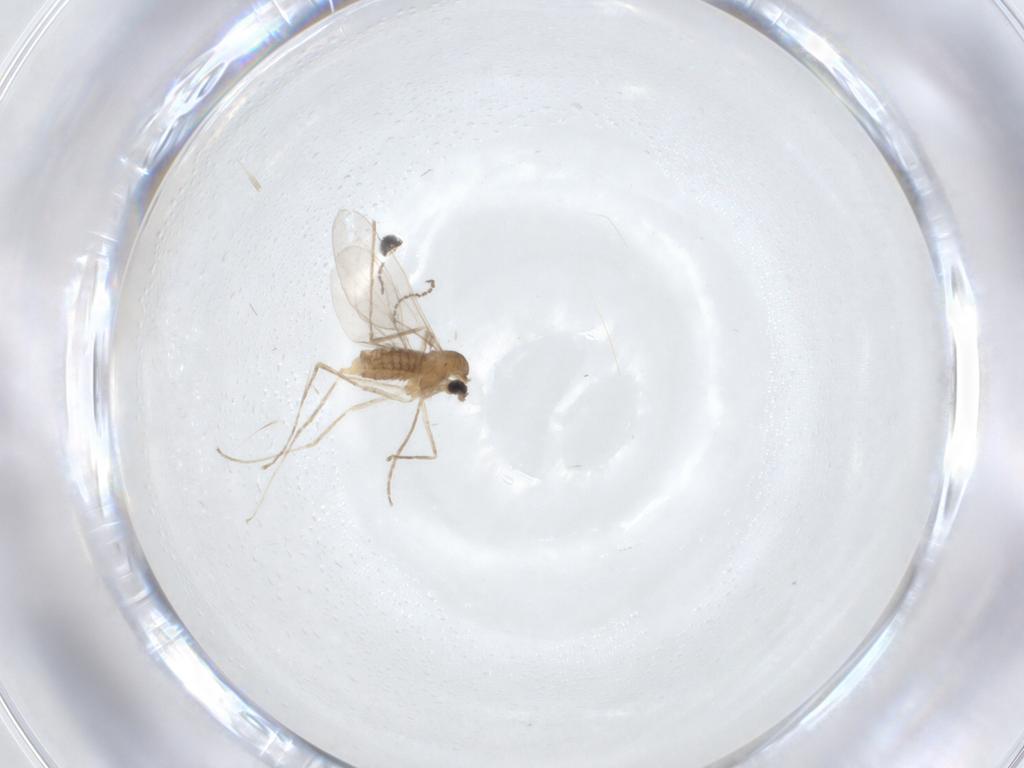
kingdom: Animalia
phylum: Arthropoda
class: Insecta
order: Diptera
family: Cecidomyiidae
